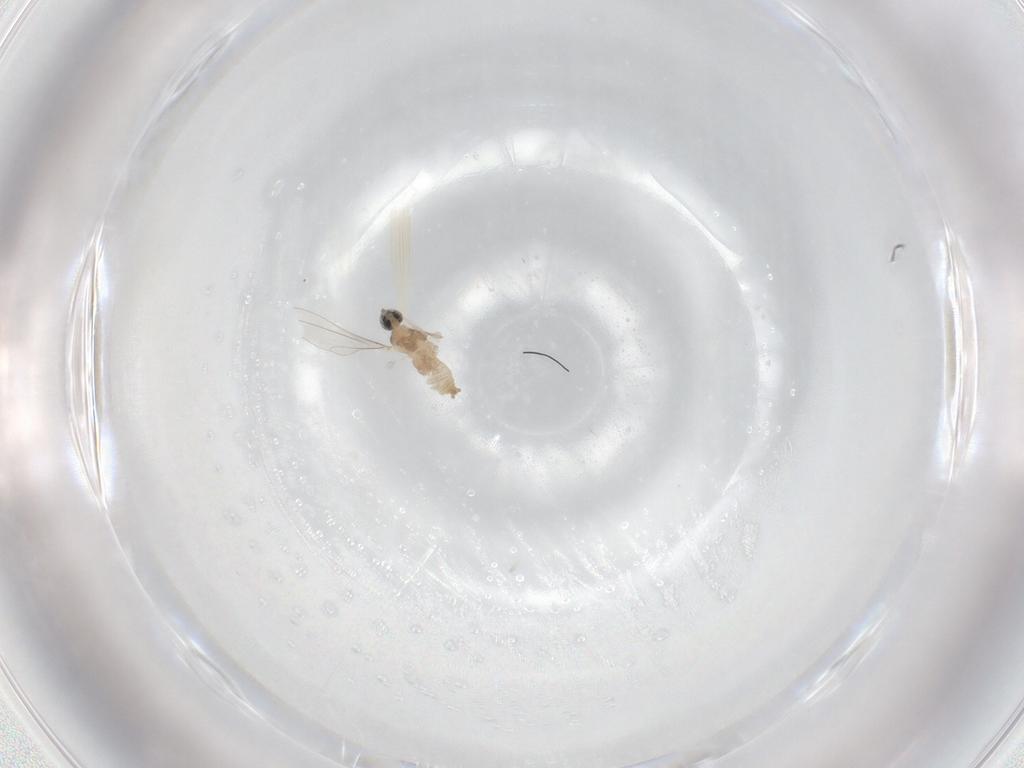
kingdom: Animalia
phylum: Arthropoda
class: Insecta
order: Diptera
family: Cecidomyiidae
